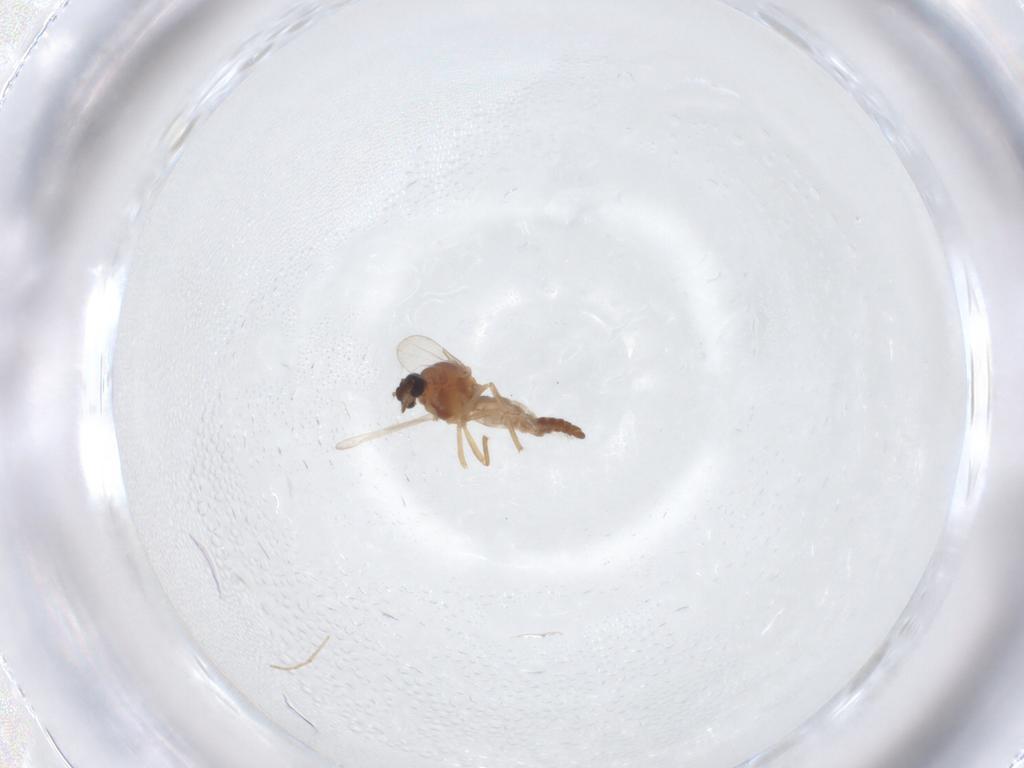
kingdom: Animalia
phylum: Arthropoda
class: Insecta
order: Diptera
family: Ceratopogonidae
